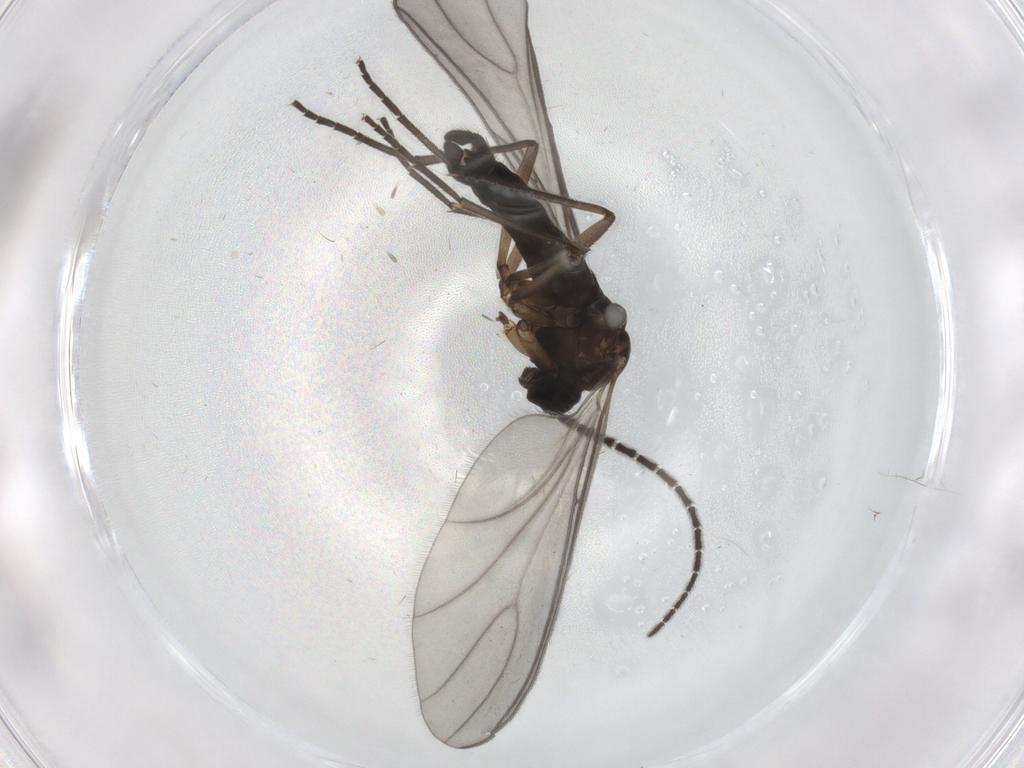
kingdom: Animalia
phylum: Arthropoda
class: Insecta
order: Diptera
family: Sciaridae
